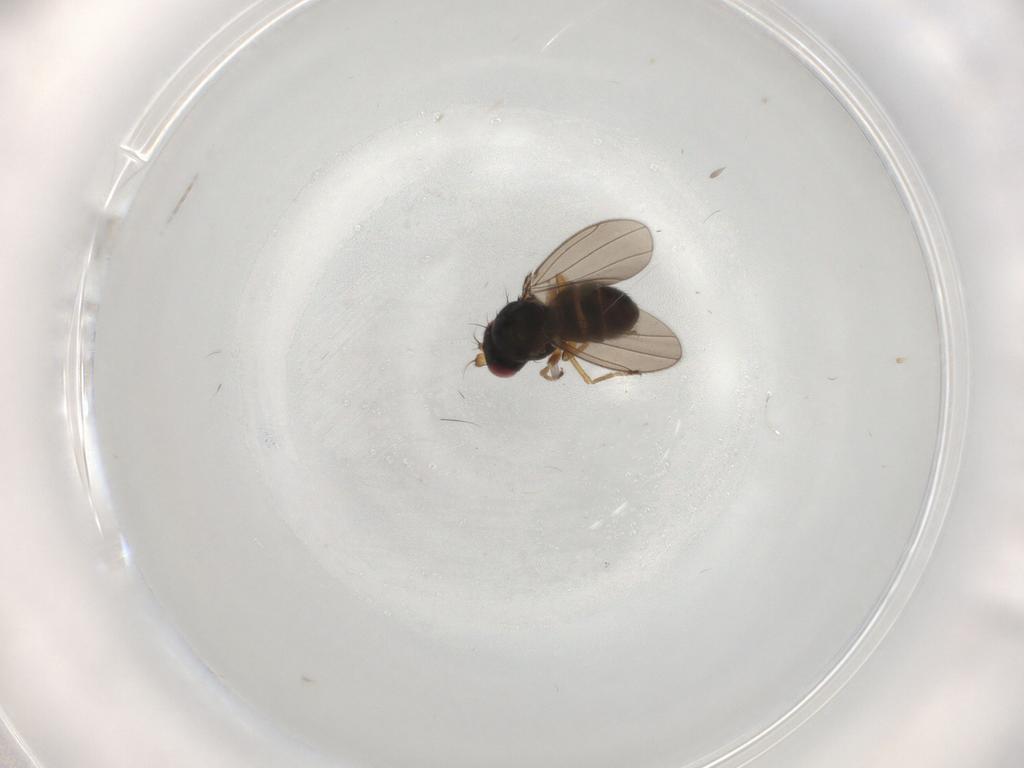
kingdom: Animalia
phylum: Arthropoda
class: Insecta
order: Diptera
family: Ephydridae
